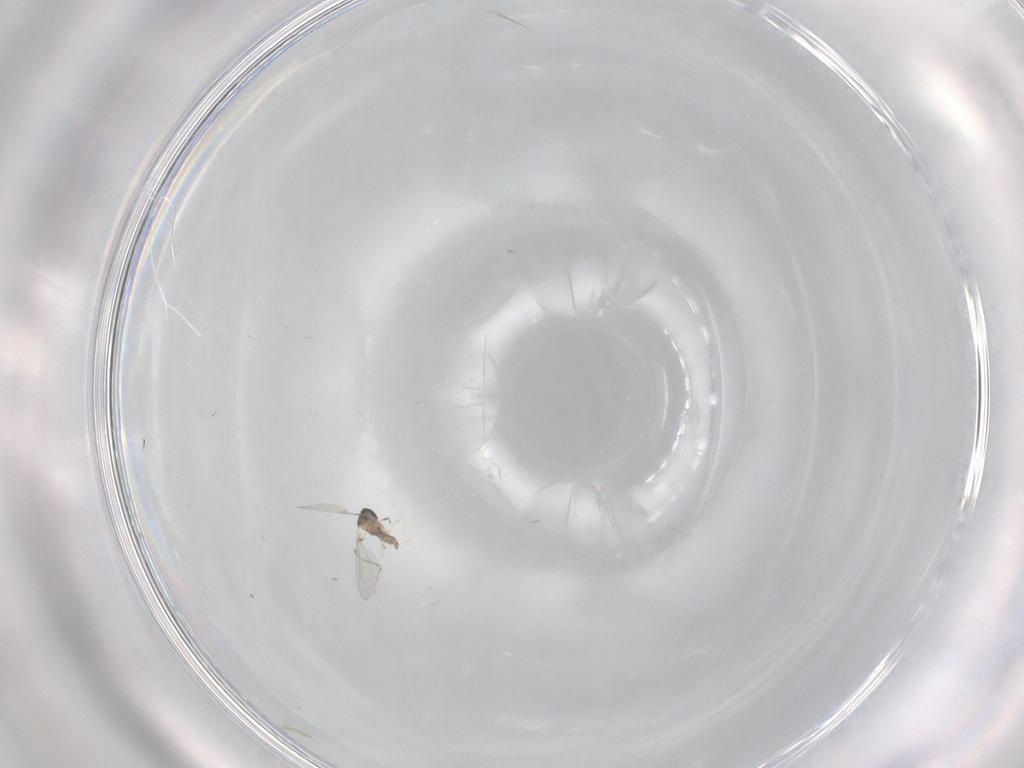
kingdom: Animalia
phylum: Arthropoda
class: Insecta
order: Diptera
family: Cecidomyiidae
